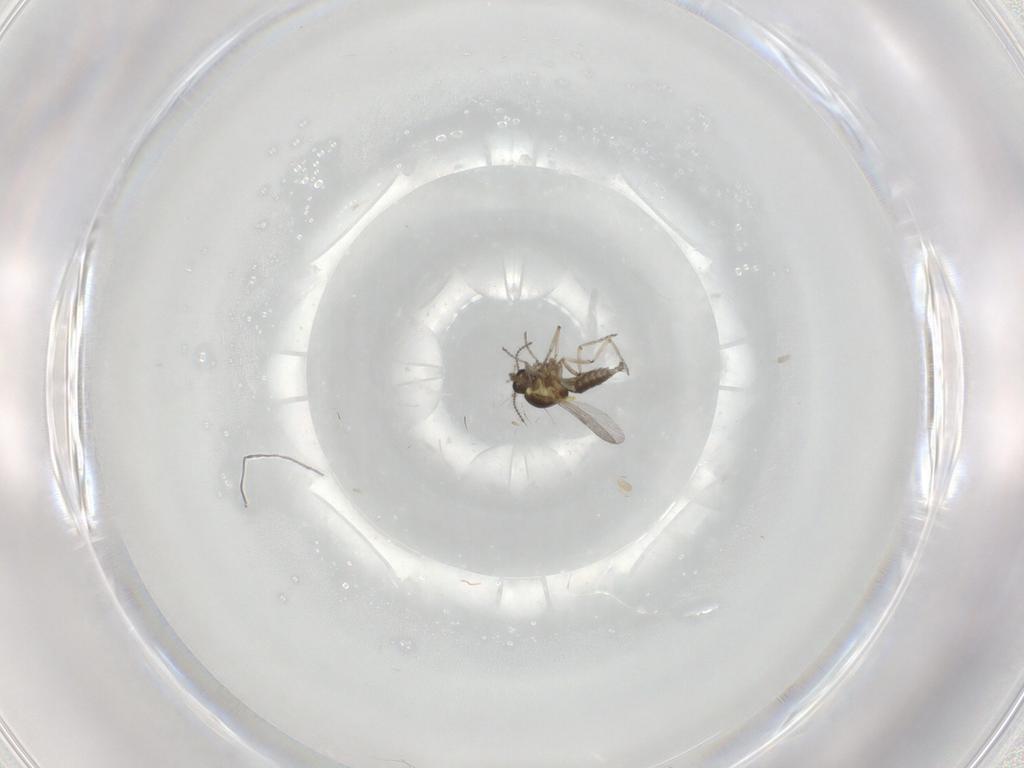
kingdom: Animalia
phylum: Arthropoda
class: Insecta
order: Diptera
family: Ceratopogonidae
